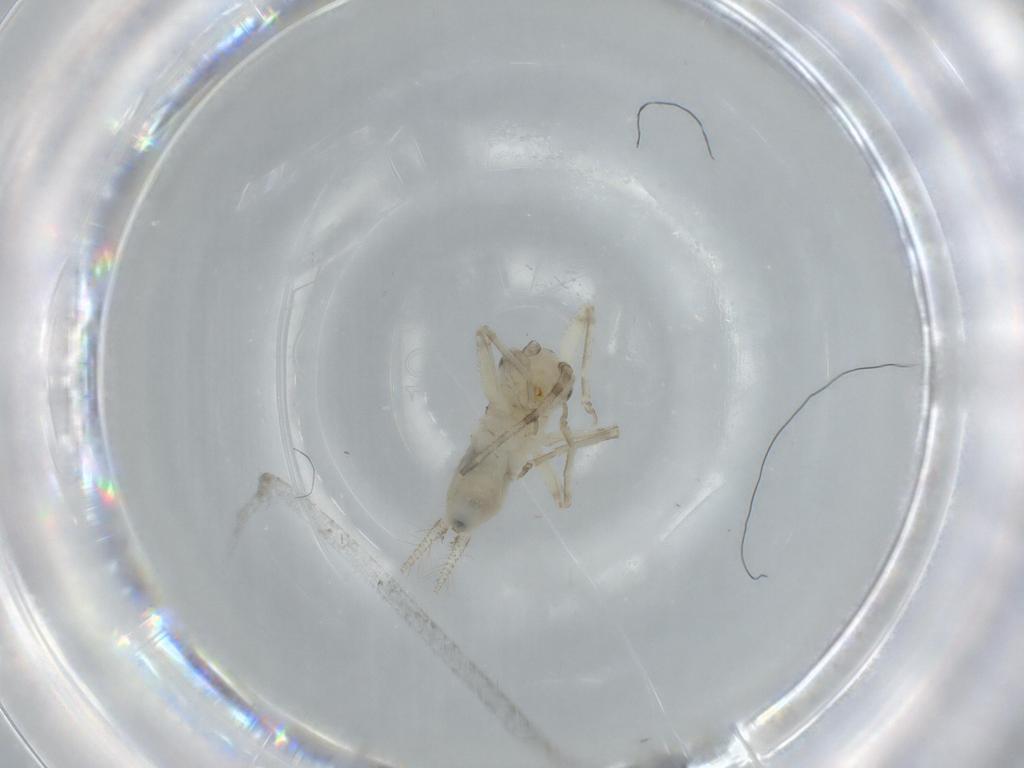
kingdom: Animalia
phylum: Arthropoda
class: Insecta
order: Orthoptera
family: Trigonidiidae
